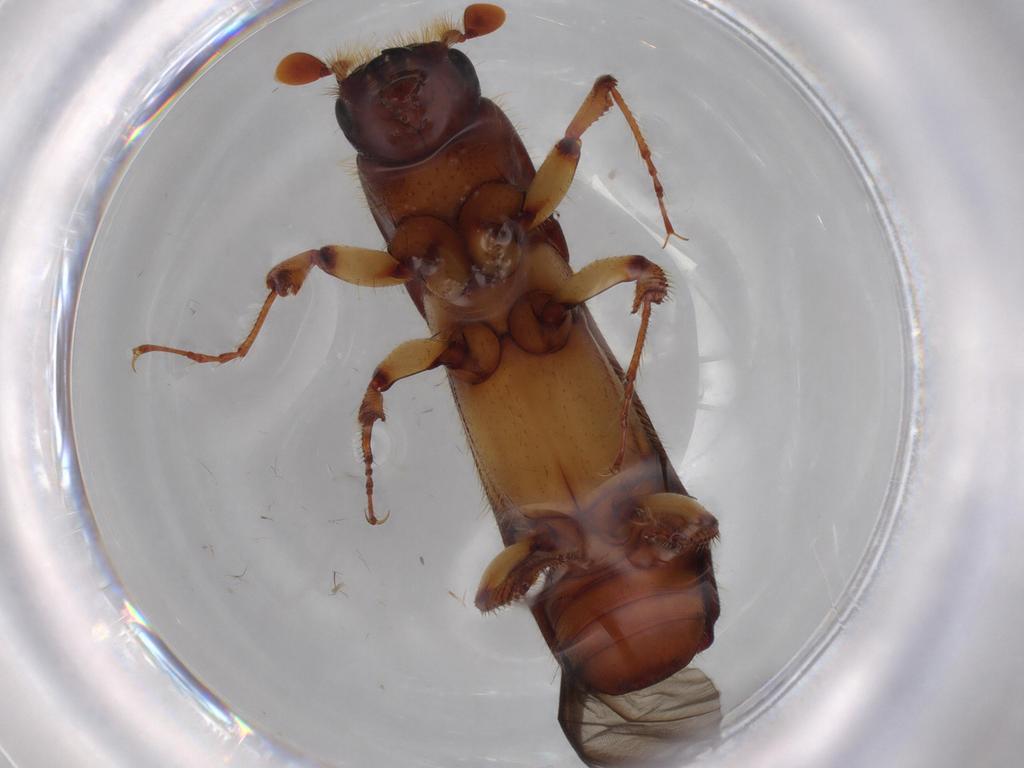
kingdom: Animalia
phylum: Arthropoda
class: Insecta
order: Coleoptera
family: Curculionidae
